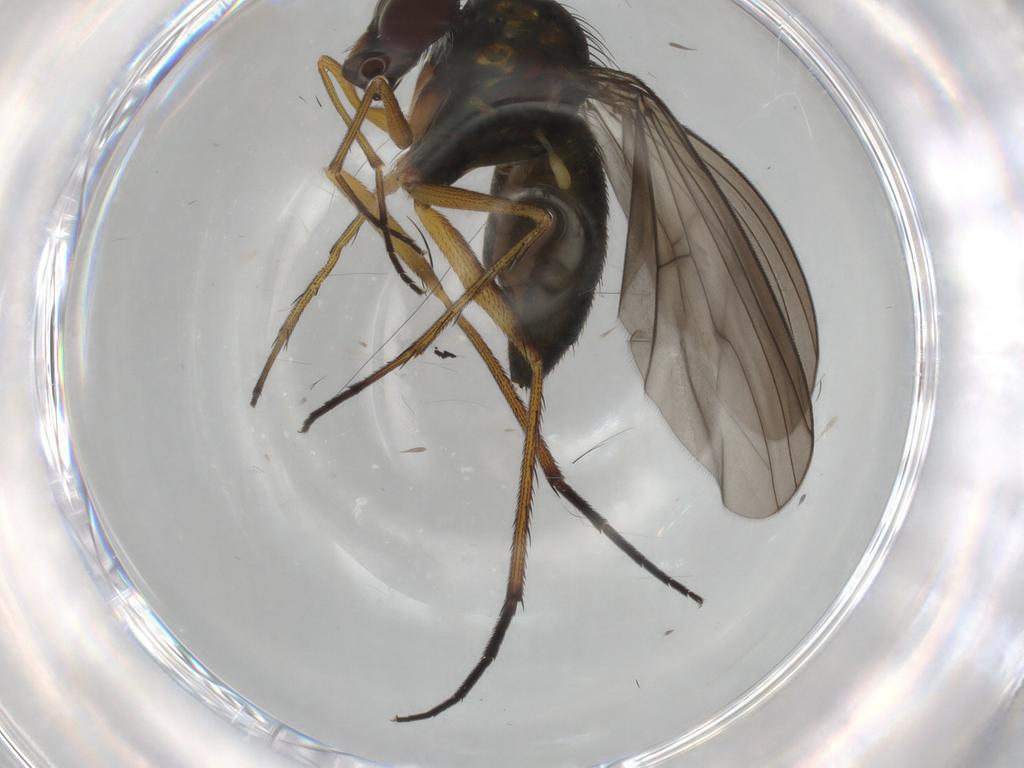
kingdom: Animalia
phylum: Arthropoda
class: Insecta
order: Diptera
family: Dolichopodidae
